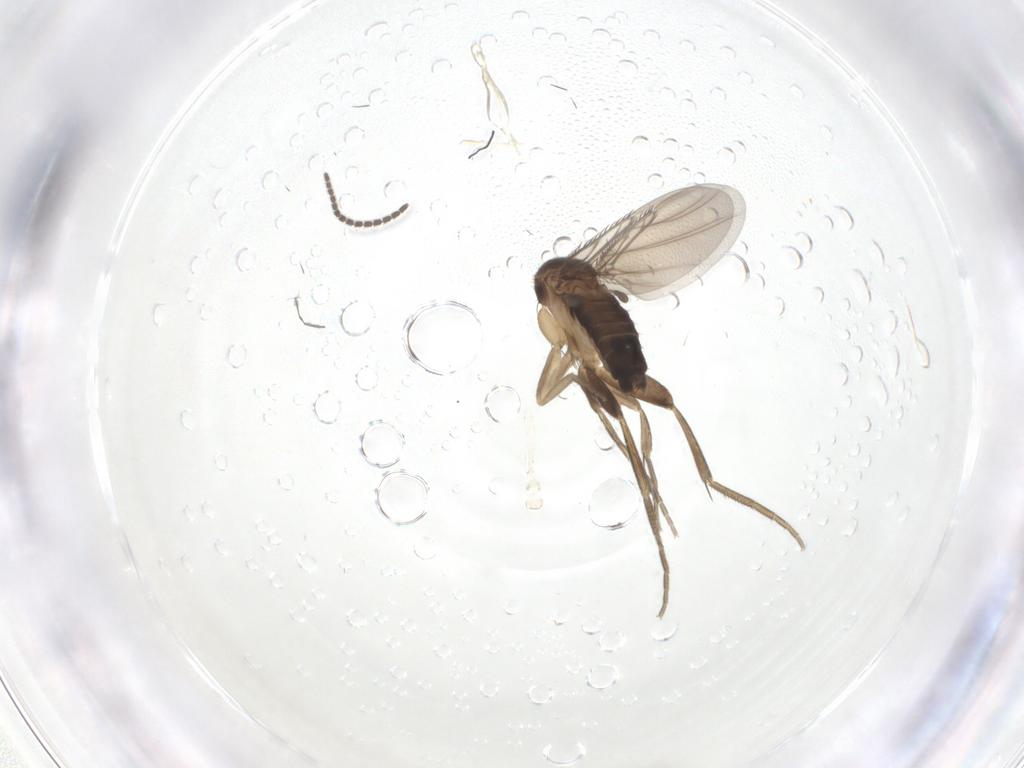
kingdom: Animalia
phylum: Arthropoda
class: Insecta
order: Diptera
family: Phoridae
